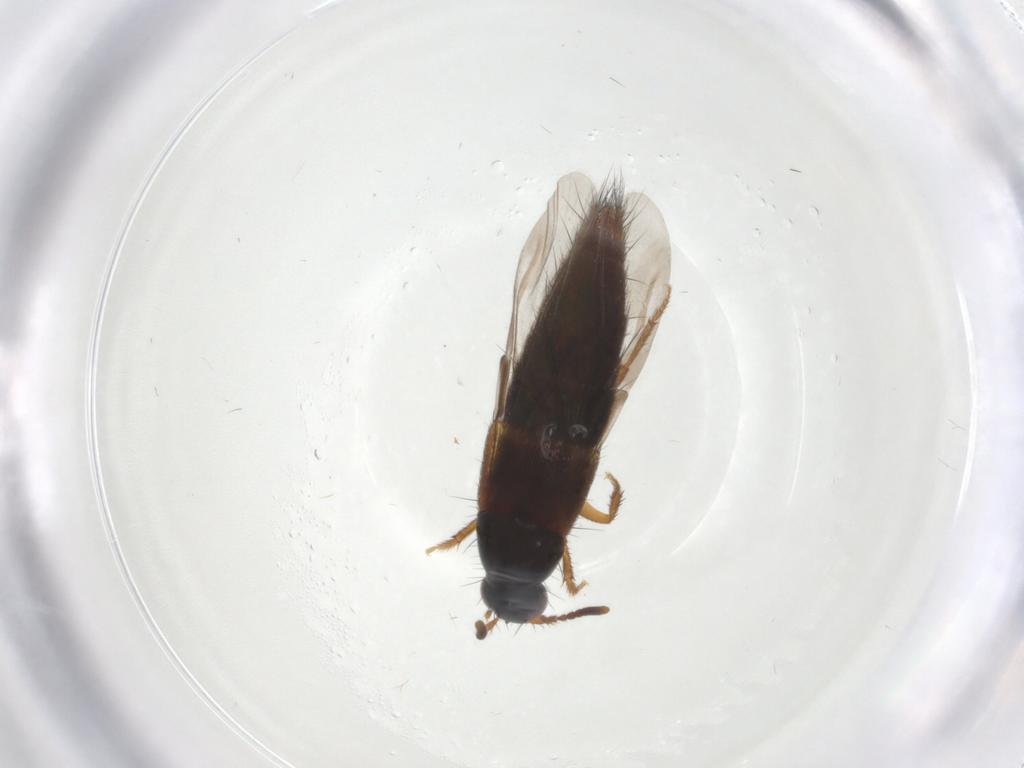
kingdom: Animalia
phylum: Arthropoda
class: Insecta
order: Coleoptera
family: Staphylinidae
